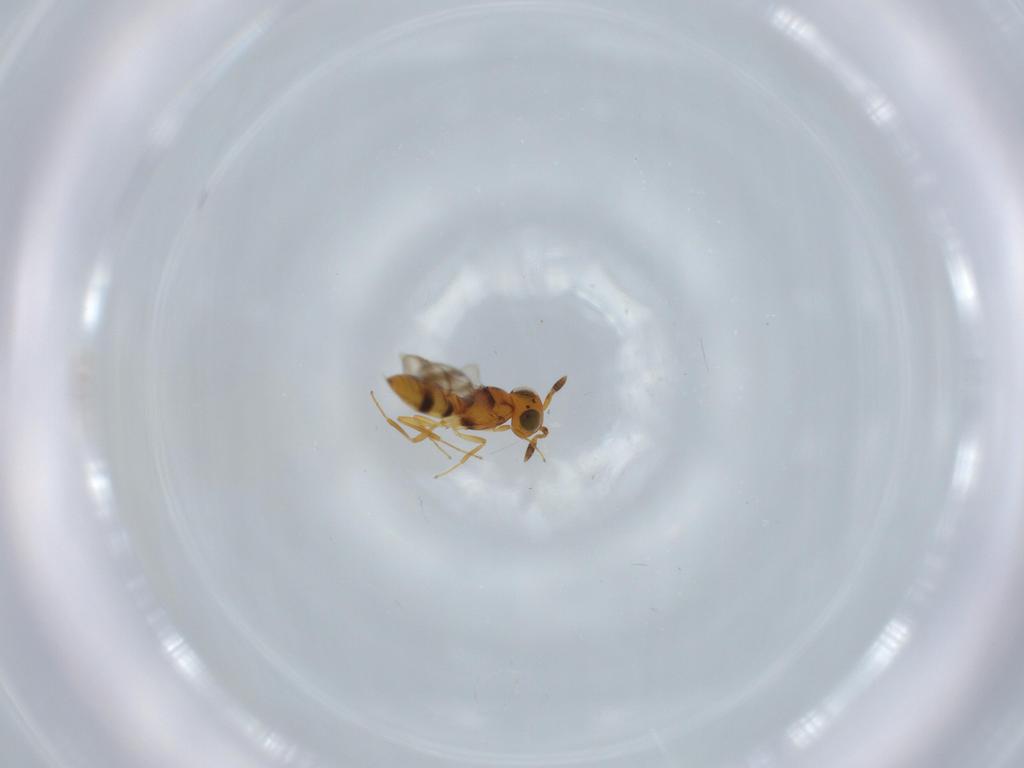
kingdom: Animalia
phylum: Arthropoda
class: Insecta
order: Hymenoptera
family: Scelionidae
